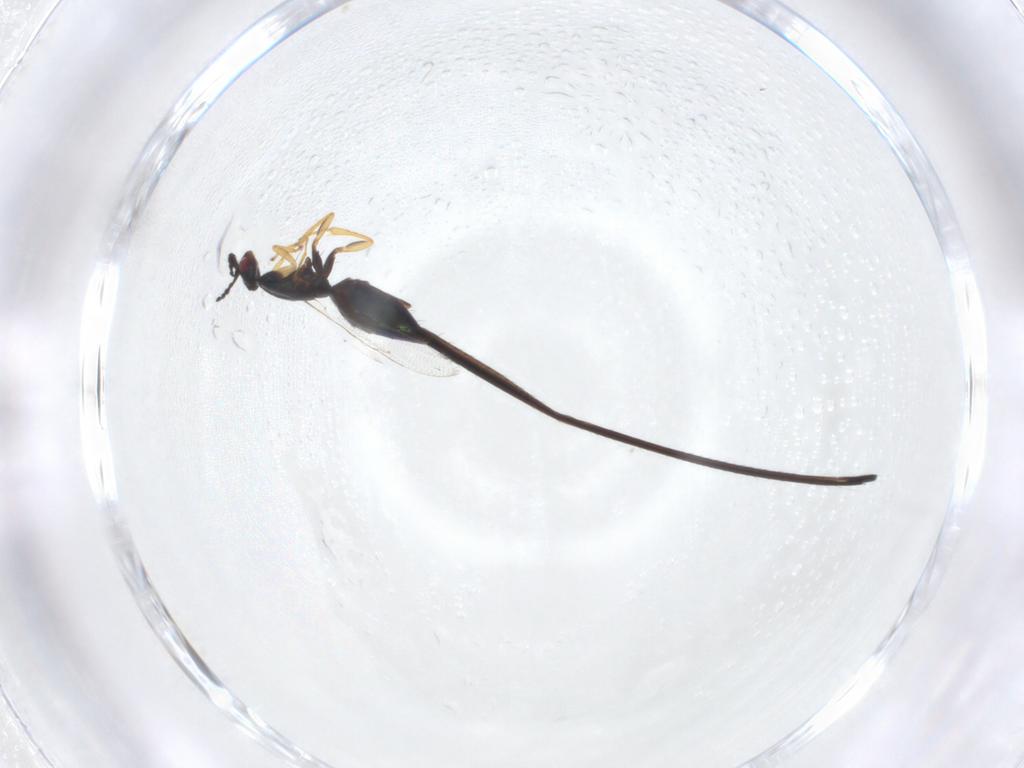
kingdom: Animalia
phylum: Arthropoda
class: Insecta
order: Hymenoptera
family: Pteromalidae
